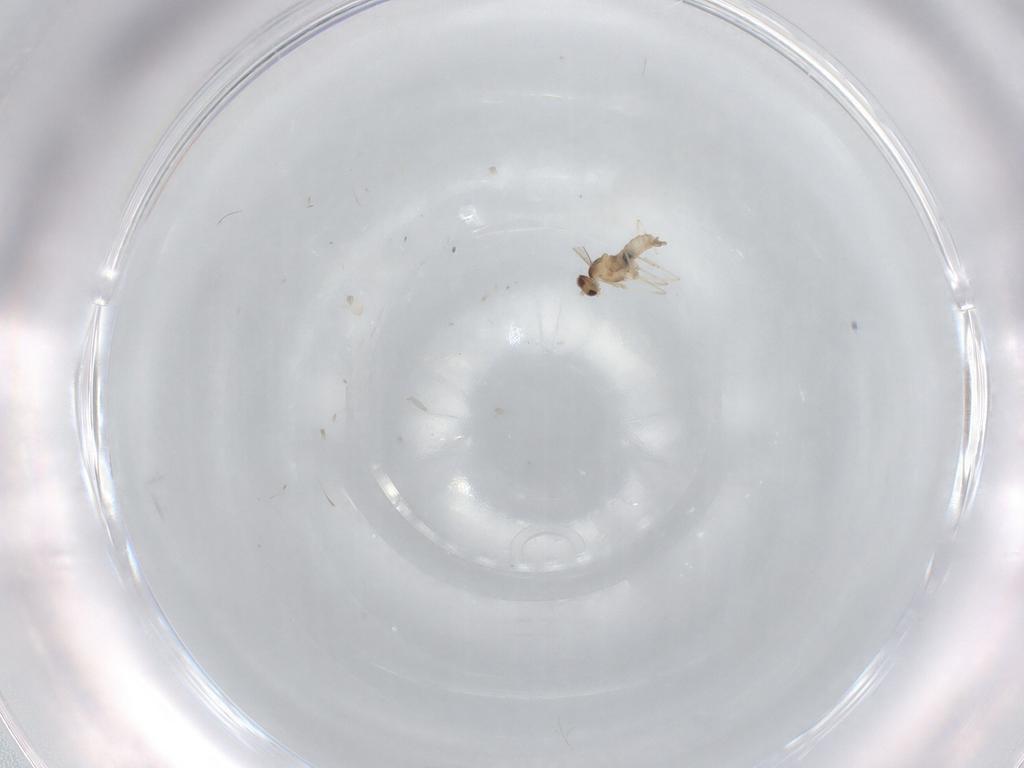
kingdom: Animalia
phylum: Arthropoda
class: Insecta
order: Diptera
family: Cecidomyiidae
